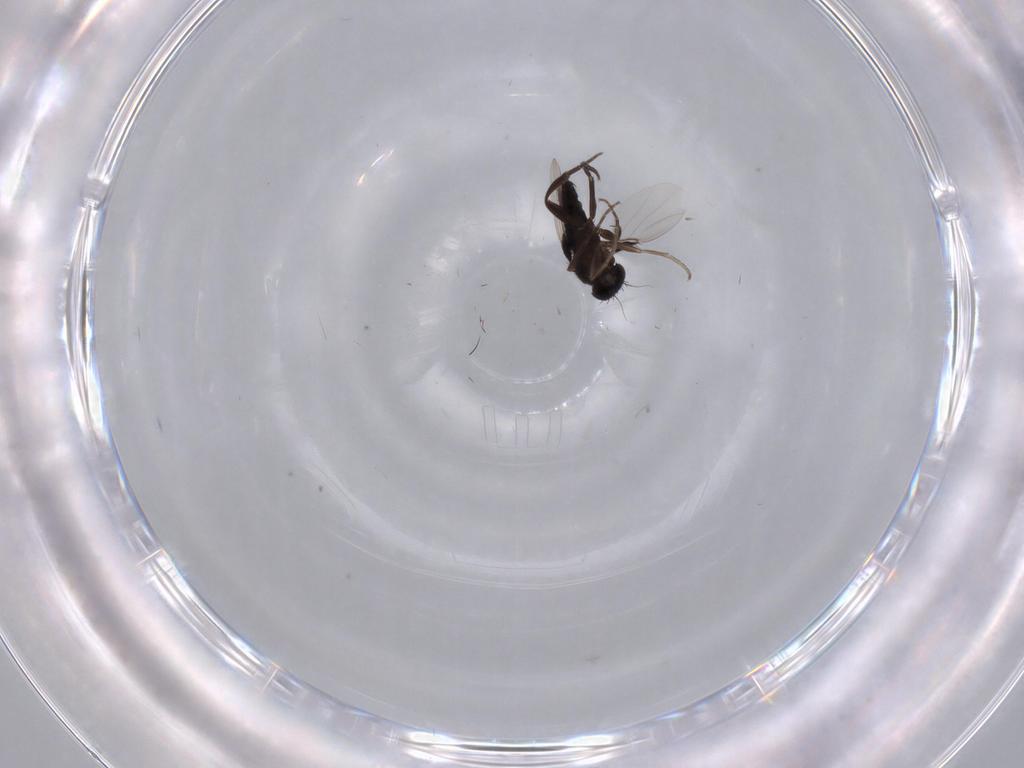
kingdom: Animalia
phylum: Arthropoda
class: Insecta
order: Diptera
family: Phoridae
